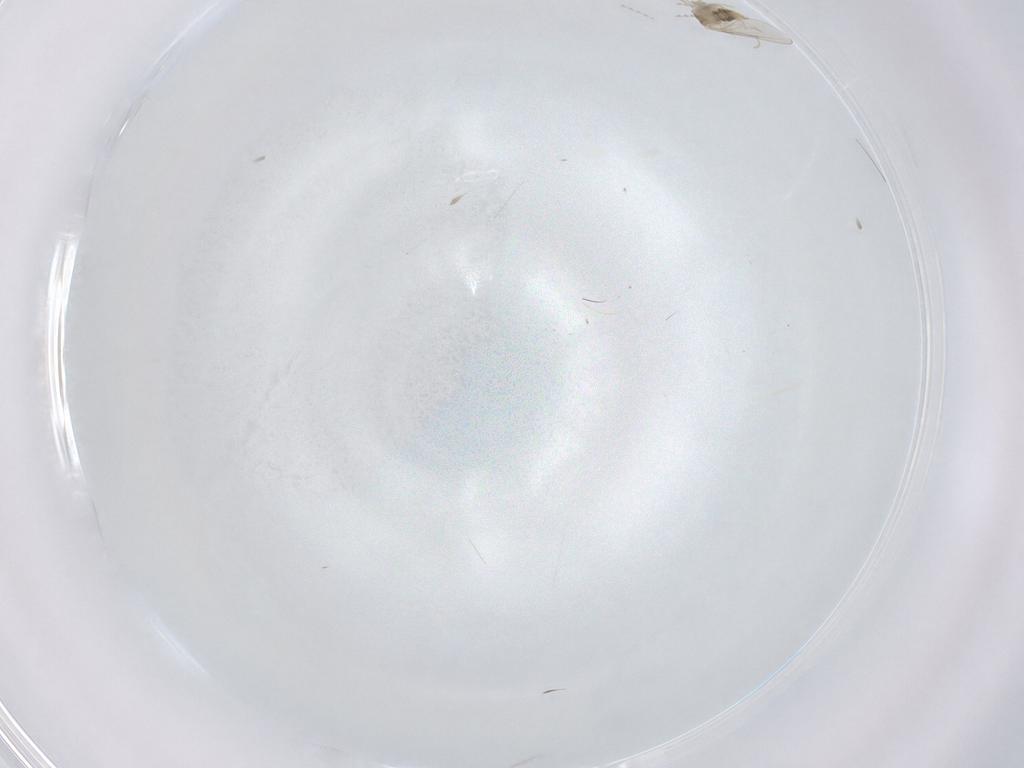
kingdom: Animalia
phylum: Arthropoda
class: Insecta
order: Diptera
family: Cecidomyiidae
